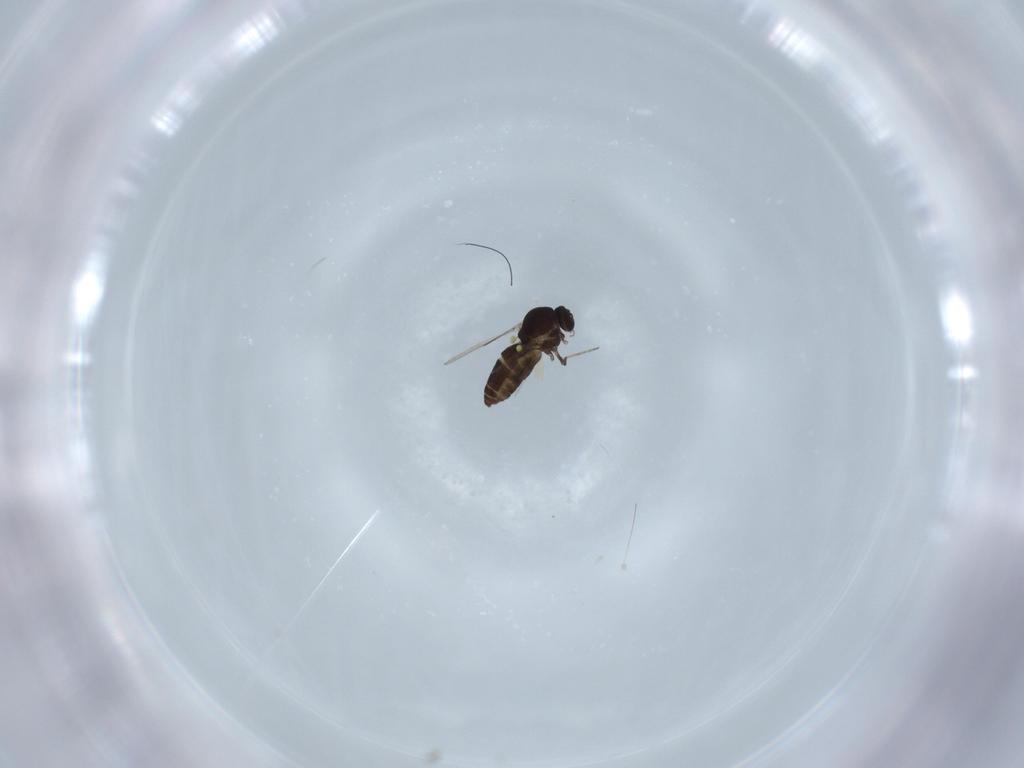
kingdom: Animalia
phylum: Arthropoda
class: Insecta
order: Diptera
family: Ceratopogonidae
